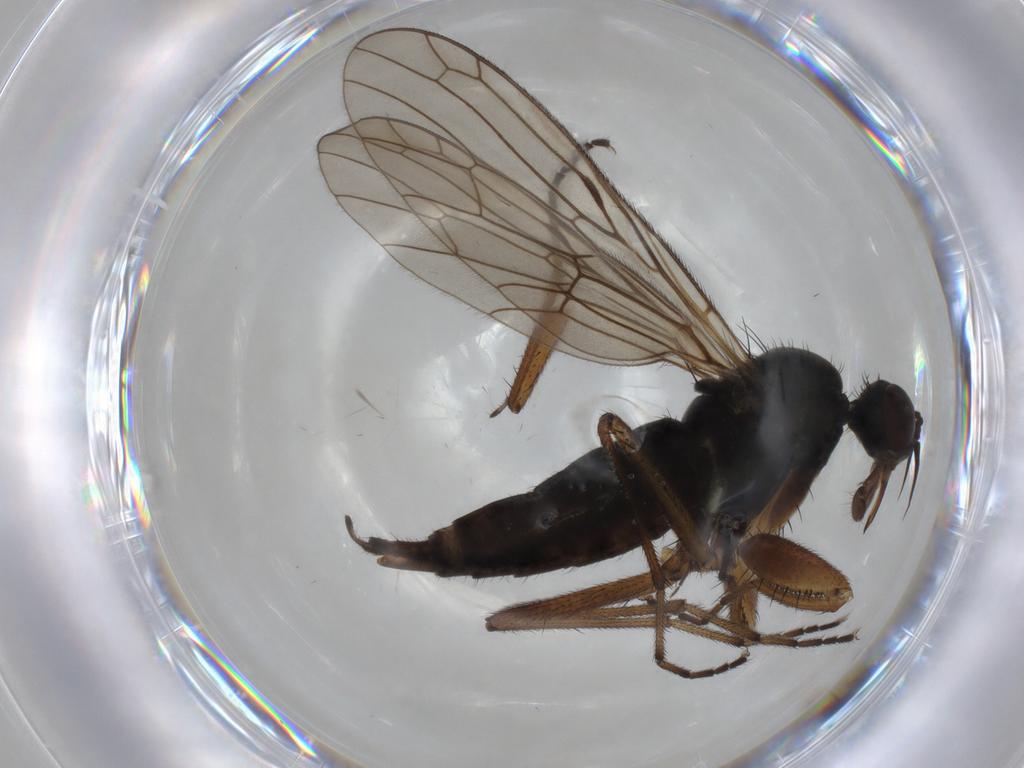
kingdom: Animalia
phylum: Arthropoda
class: Insecta
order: Diptera
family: Empididae
